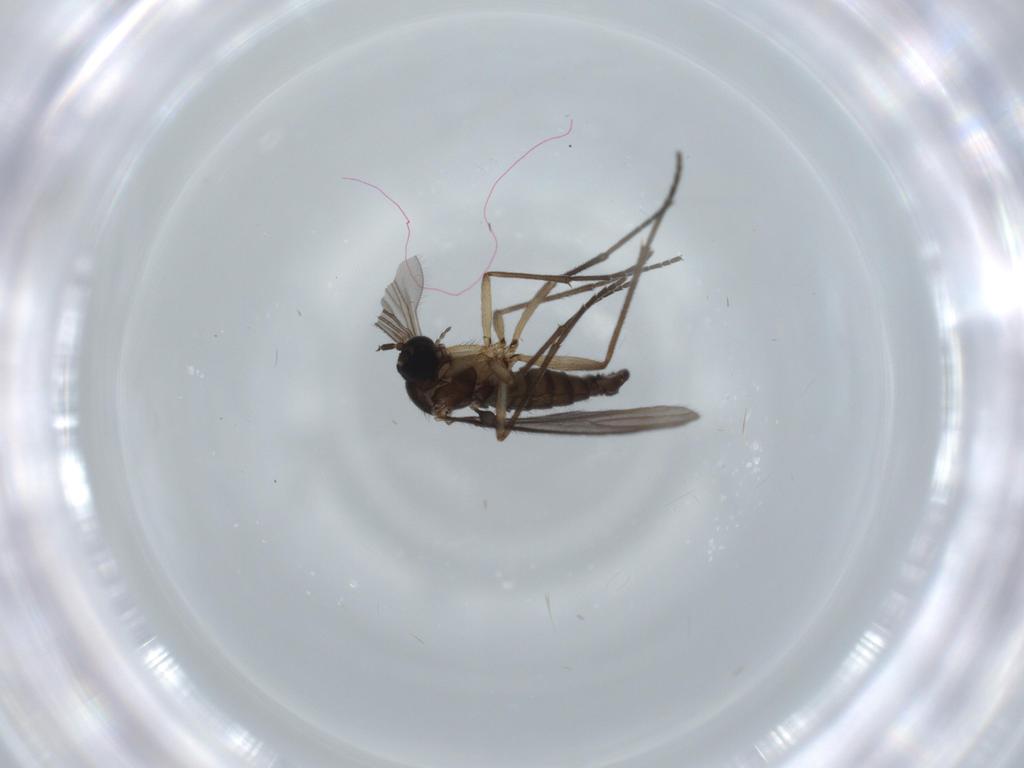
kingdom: Animalia
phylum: Arthropoda
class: Insecta
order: Diptera
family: Sciaridae
